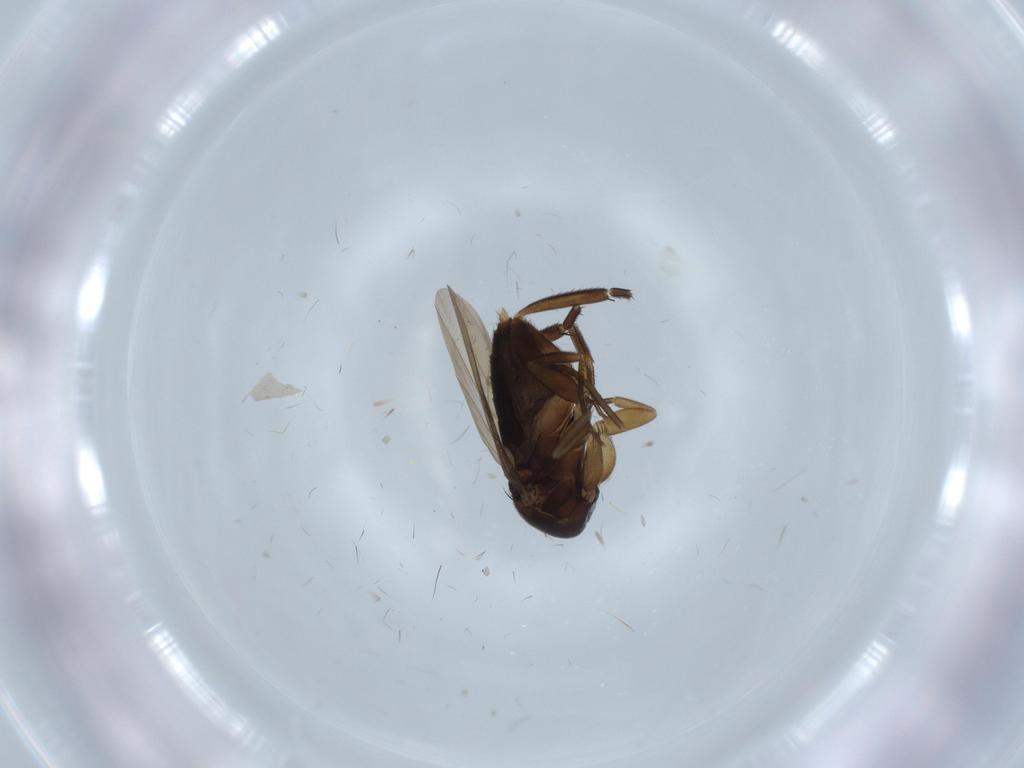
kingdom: Animalia
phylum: Arthropoda
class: Insecta
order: Diptera
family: Phoridae
